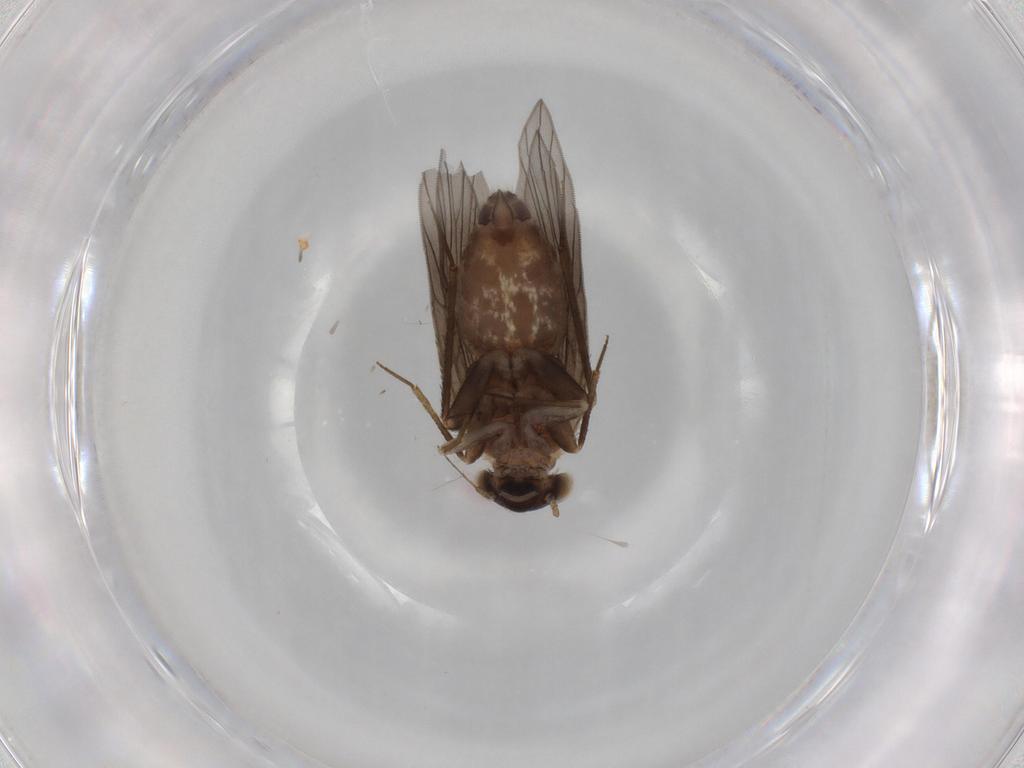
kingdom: Animalia
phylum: Arthropoda
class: Insecta
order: Psocodea
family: Lepidopsocidae
